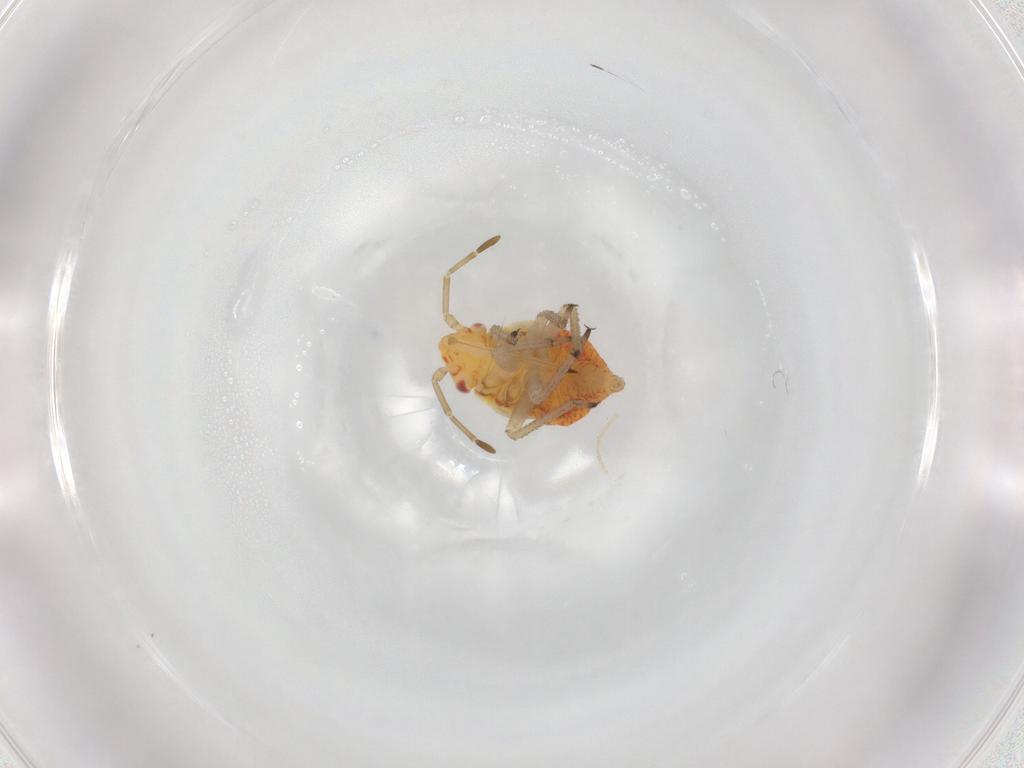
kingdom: Animalia
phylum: Arthropoda
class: Insecta
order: Hemiptera
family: Miridae
